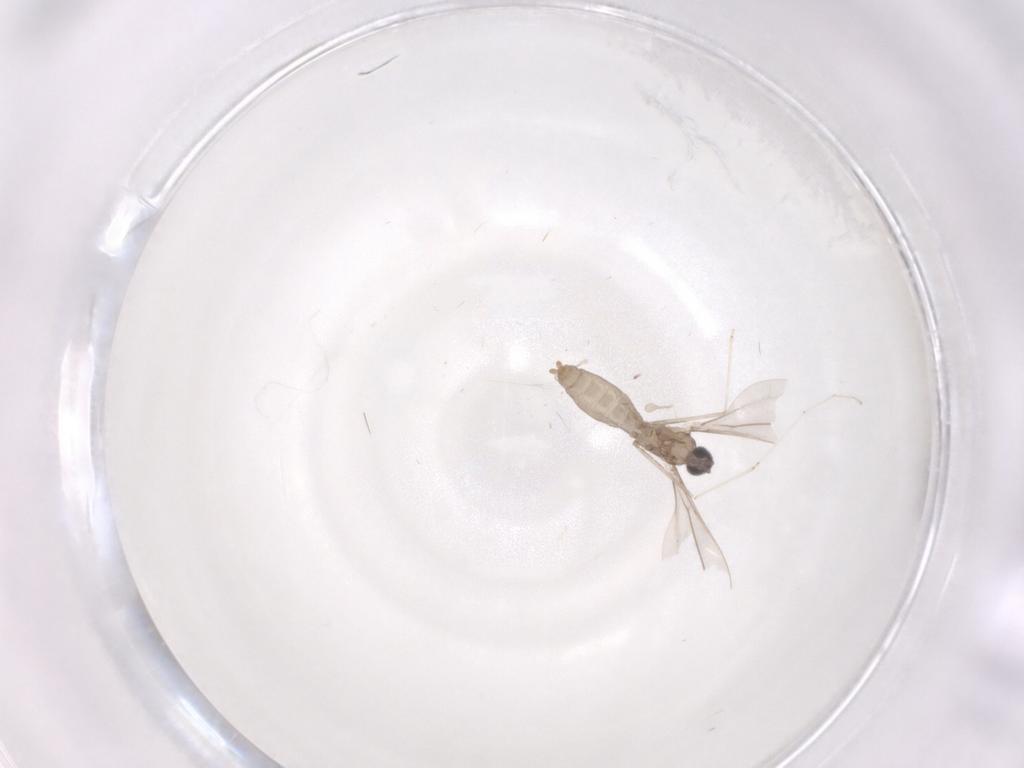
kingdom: Animalia
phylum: Arthropoda
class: Insecta
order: Diptera
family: Cecidomyiidae
